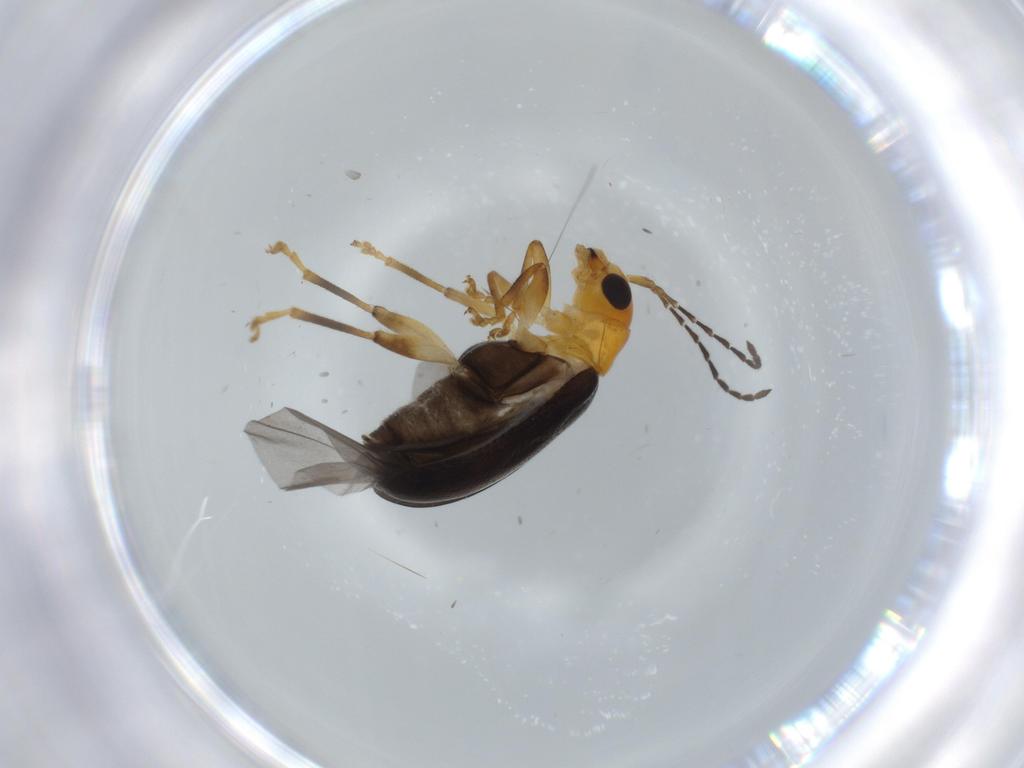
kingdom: Animalia
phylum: Arthropoda
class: Insecta
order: Coleoptera
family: Chrysomelidae
